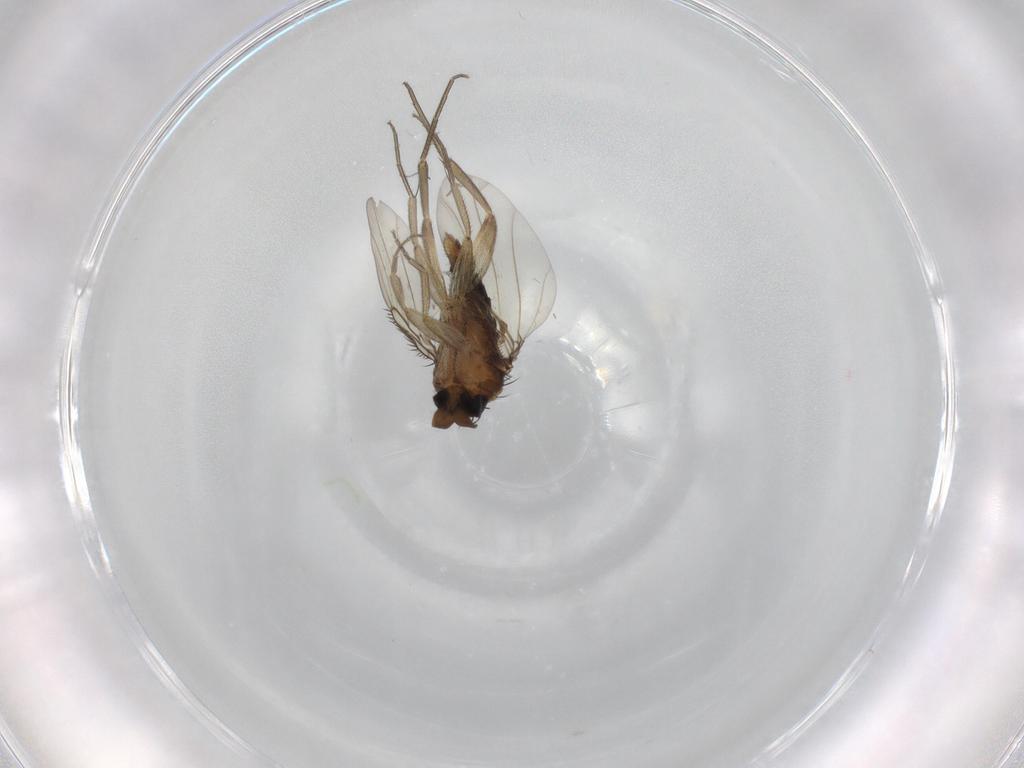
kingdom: Animalia
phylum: Arthropoda
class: Insecta
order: Diptera
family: Phoridae
